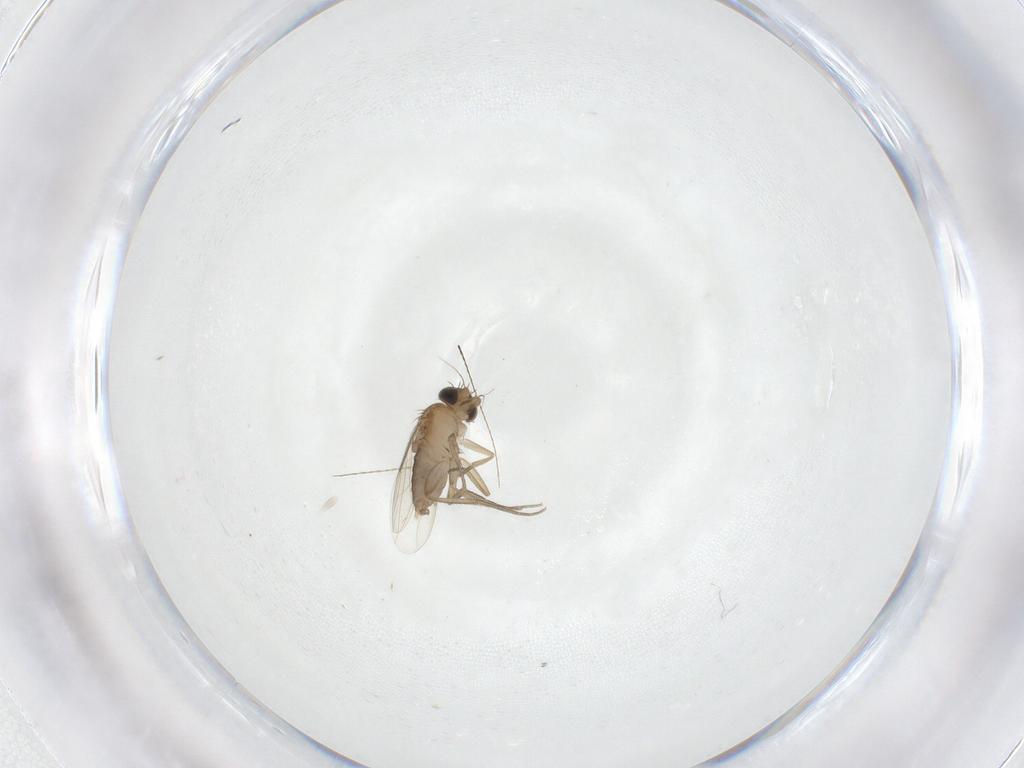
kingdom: Animalia
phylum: Arthropoda
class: Insecta
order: Diptera
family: Phoridae
